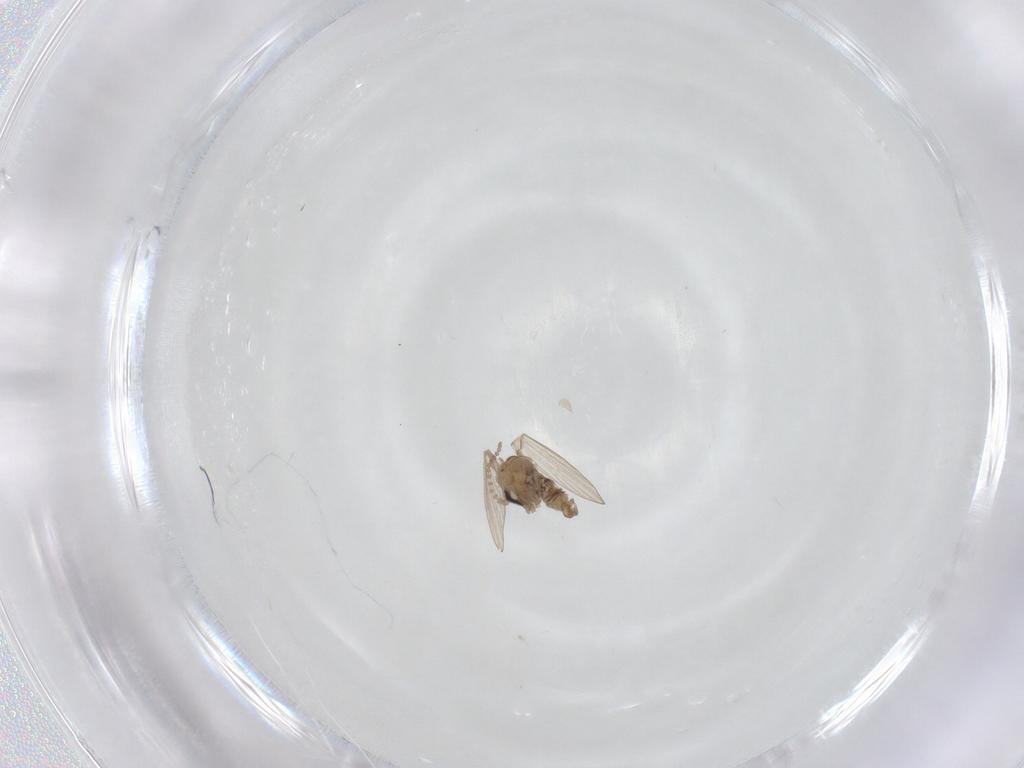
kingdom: Animalia
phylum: Arthropoda
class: Insecta
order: Diptera
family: Psychodidae
